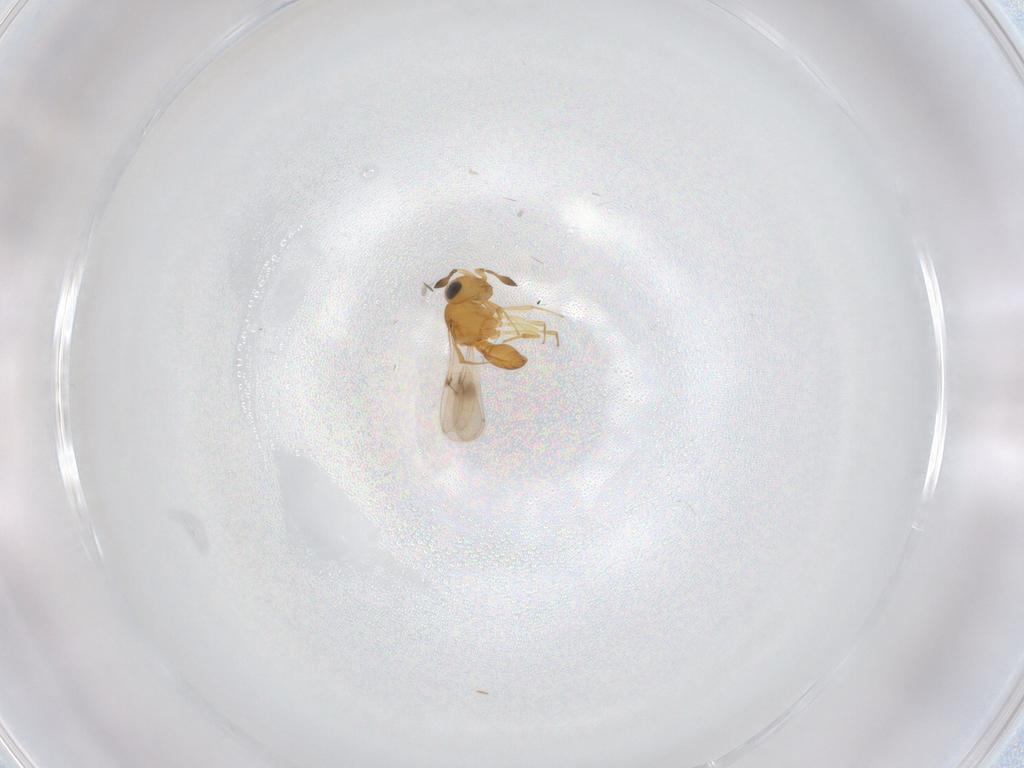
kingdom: Animalia
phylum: Arthropoda
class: Insecta
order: Hymenoptera
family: Scelionidae
